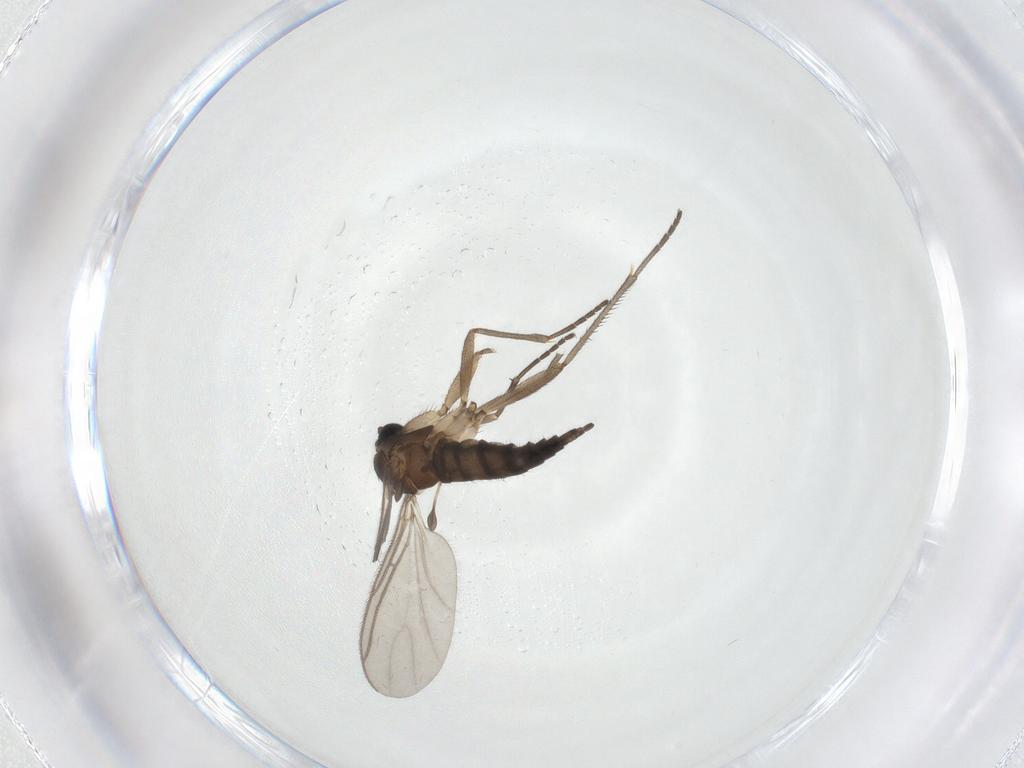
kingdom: Animalia
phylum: Arthropoda
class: Insecta
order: Diptera
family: Sciaridae
